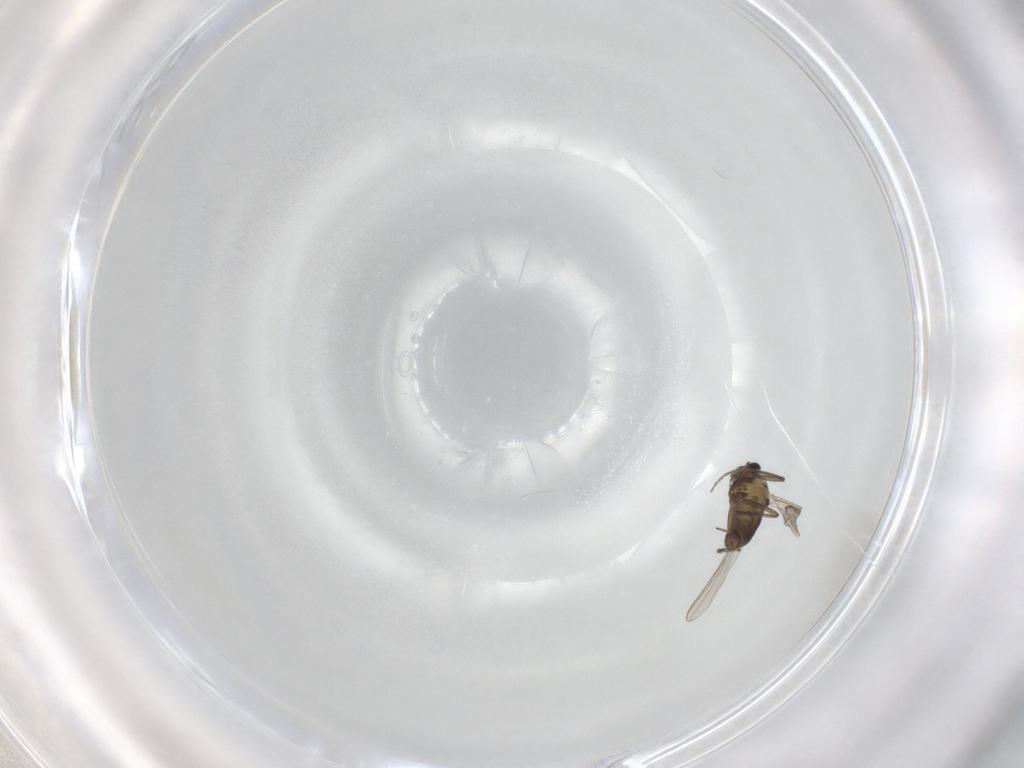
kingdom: Animalia
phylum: Arthropoda
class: Insecta
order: Diptera
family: Chironomidae
